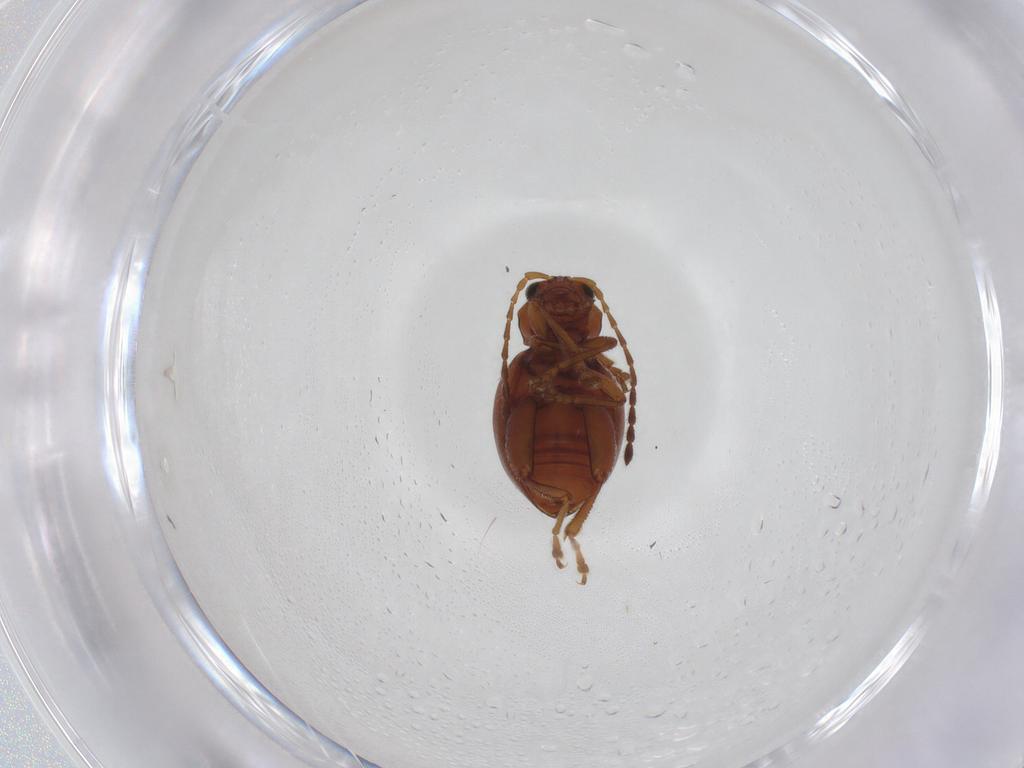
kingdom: Animalia
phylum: Arthropoda
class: Insecta
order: Coleoptera
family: Chrysomelidae
